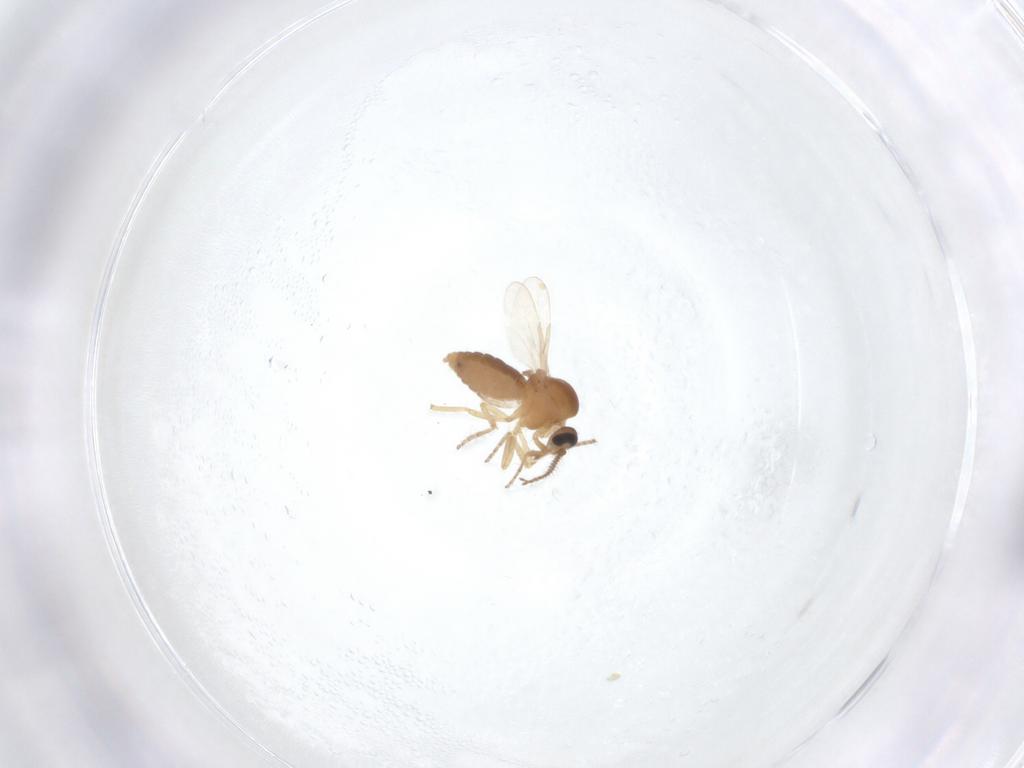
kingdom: Animalia
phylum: Arthropoda
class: Insecta
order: Diptera
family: Ceratopogonidae
